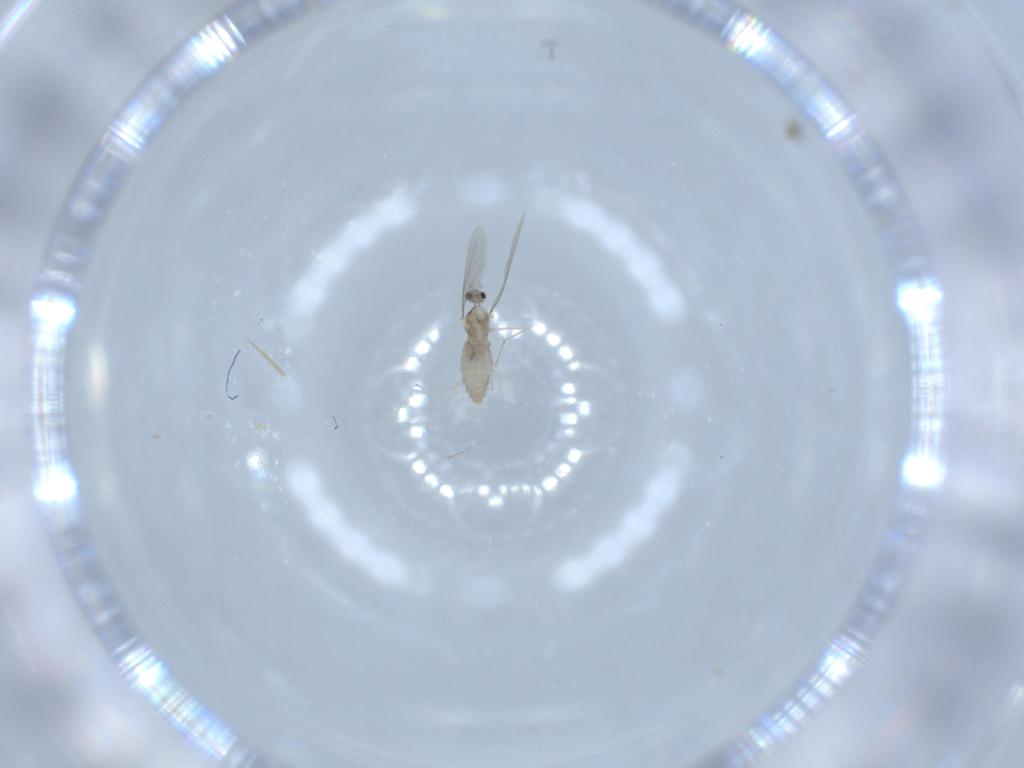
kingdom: Animalia
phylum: Arthropoda
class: Insecta
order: Diptera
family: Cecidomyiidae
